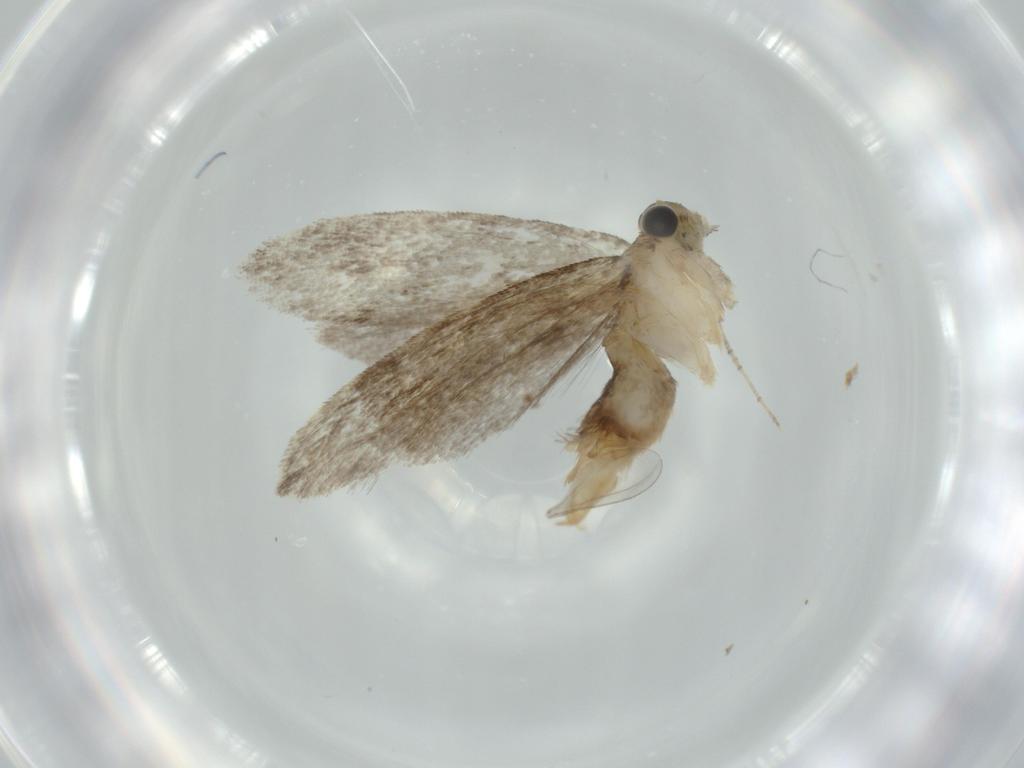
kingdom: Animalia
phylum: Arthropoda
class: Insecta
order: Lepidoptera
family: Tineidae
